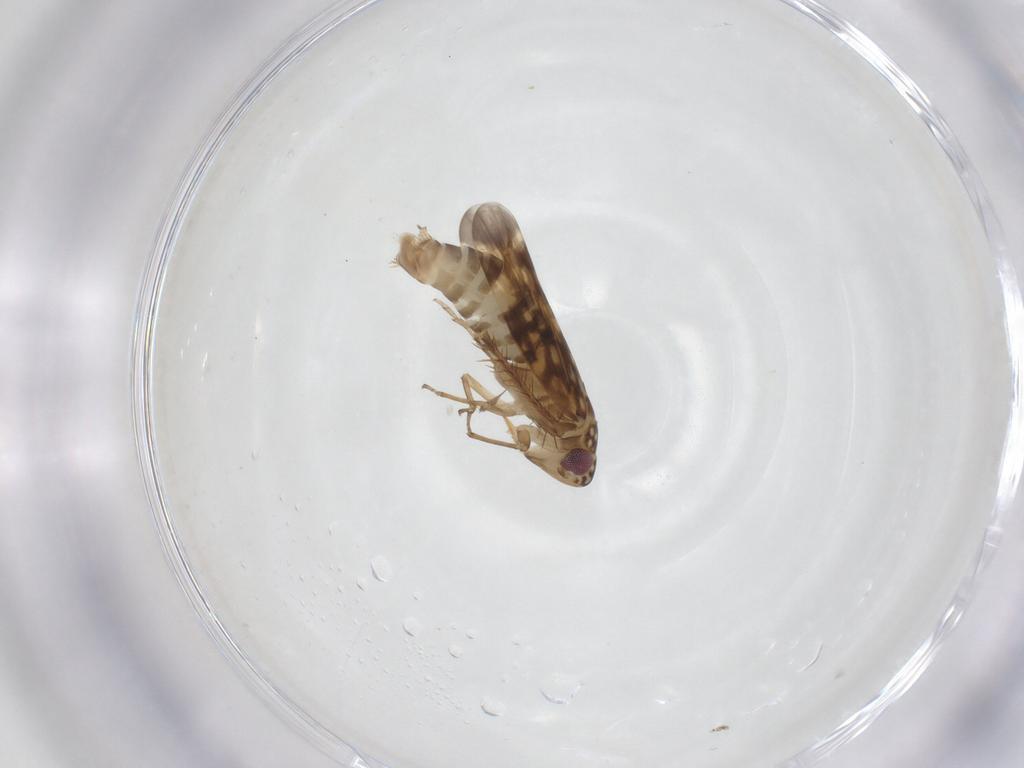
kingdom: Animalia
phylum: Arthropoda
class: Insecta
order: Hemiptera
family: Cicadellidae
